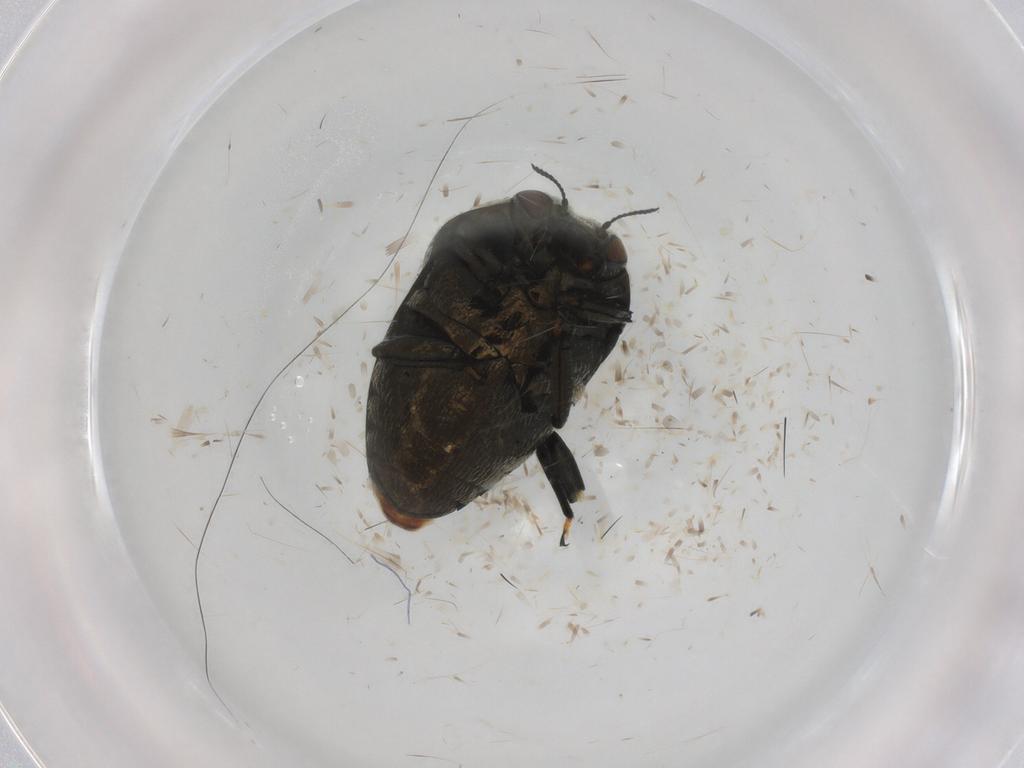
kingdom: Animalia
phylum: Arthropoda
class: Insecta
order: Coleoptera
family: Buprestidae
